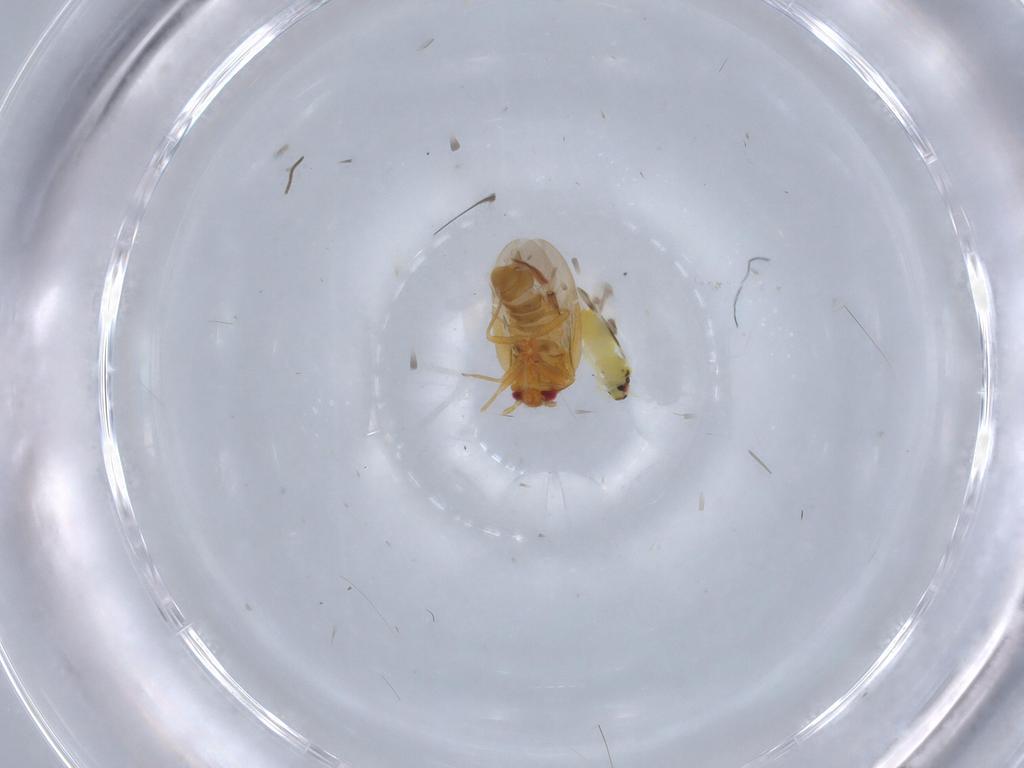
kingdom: Animalia
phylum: Arthropoda
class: Insecta
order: Hemiptera
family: Aleyrodidae
